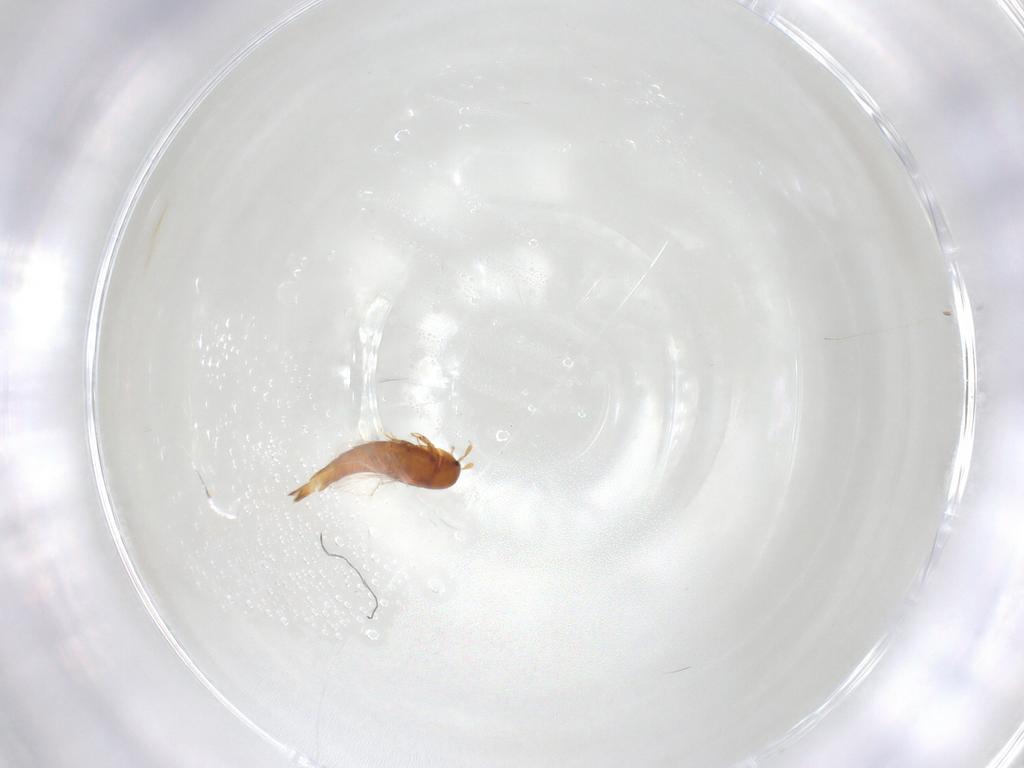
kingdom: Animalia
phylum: Arthropoda
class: Insecta
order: Coleoptera
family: Staphylinidae
